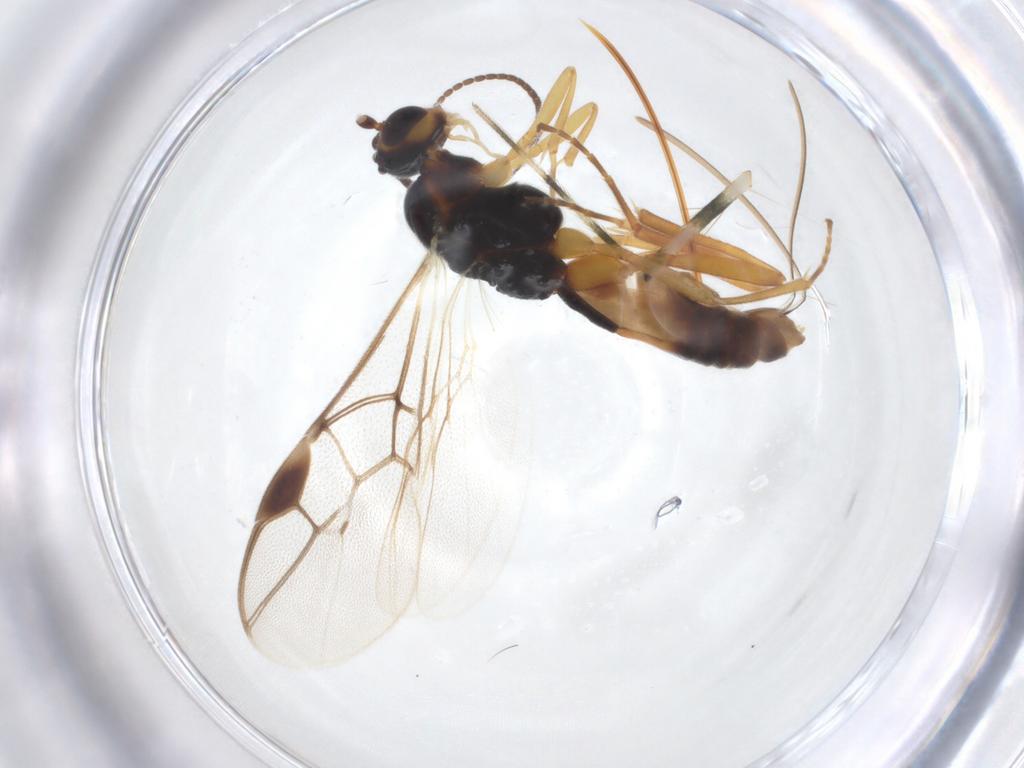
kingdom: Animalia
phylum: Arthropoda
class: Insecta
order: Hymenoptera
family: Braconidae
